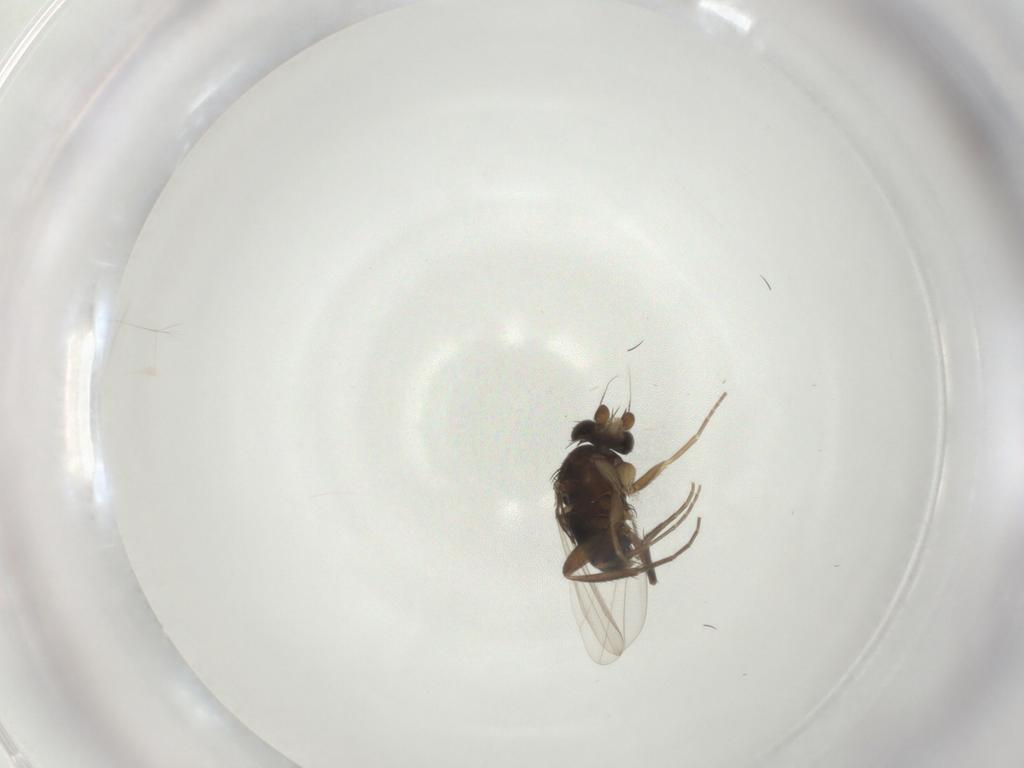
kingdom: Animalia
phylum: Arthropoda
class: Insecta
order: Diptera
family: Phoridae
